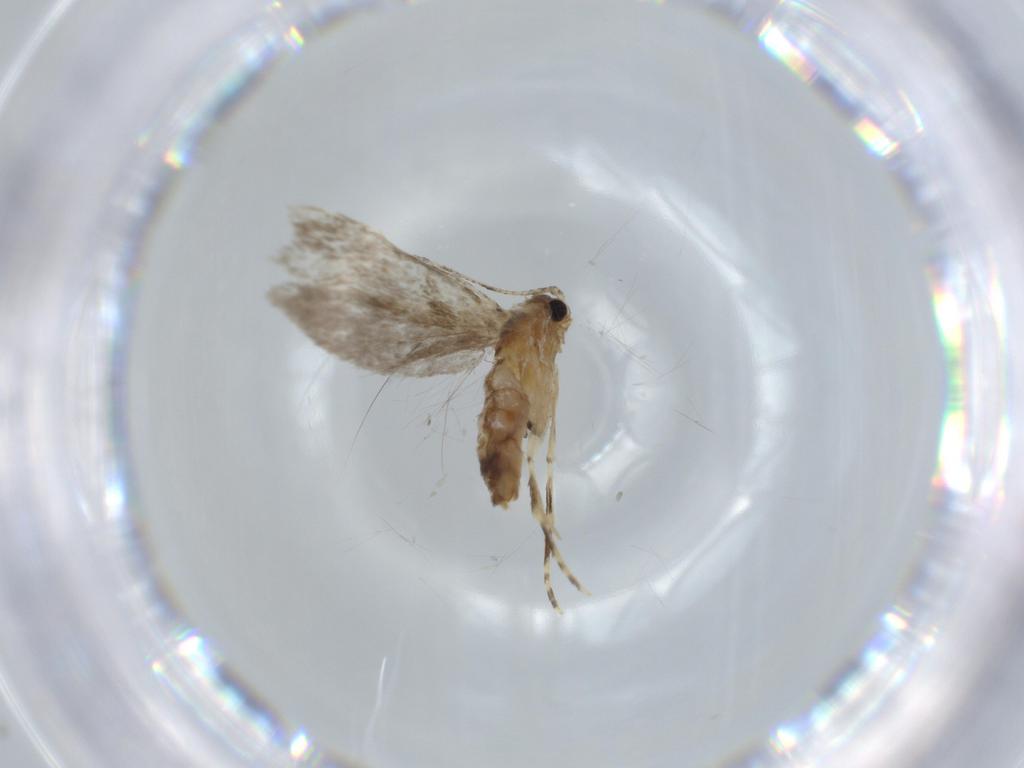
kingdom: Animalia
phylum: Arthropoda
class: Insecta
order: Lepidoptera
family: Tineidae
